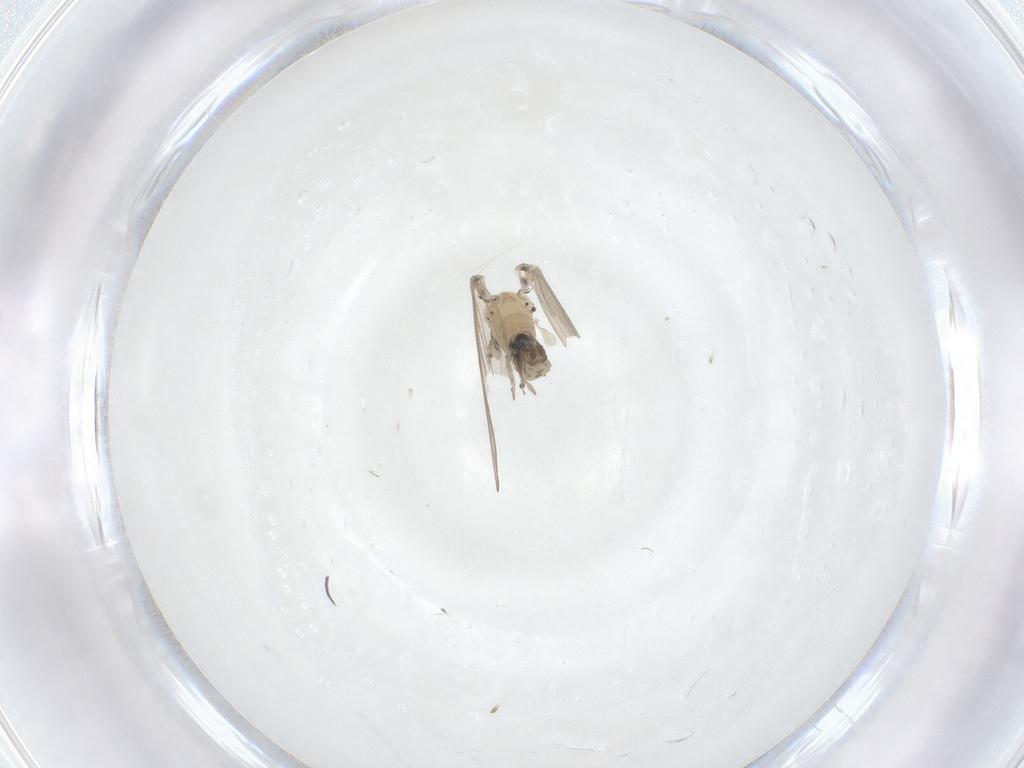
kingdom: Animalia
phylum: Arthropoda
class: Insecta
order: Diptera
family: Psychodidae
